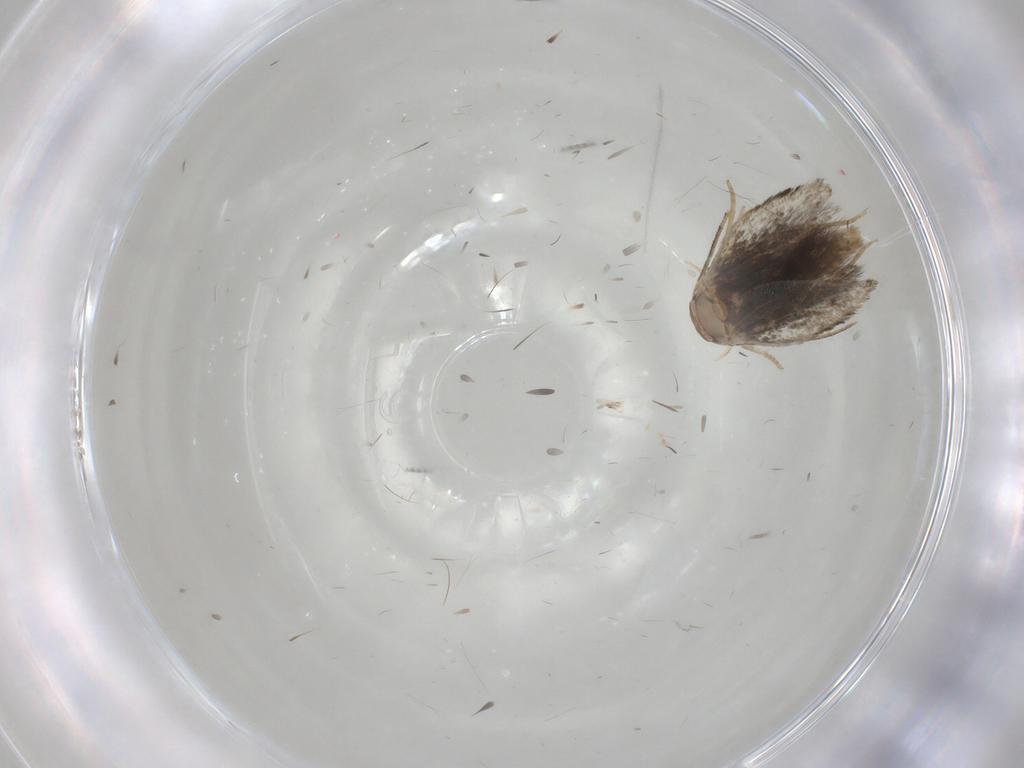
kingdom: Animalia
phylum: Arthropoda
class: Insecta
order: Lepidoptera
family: Elachistidae
